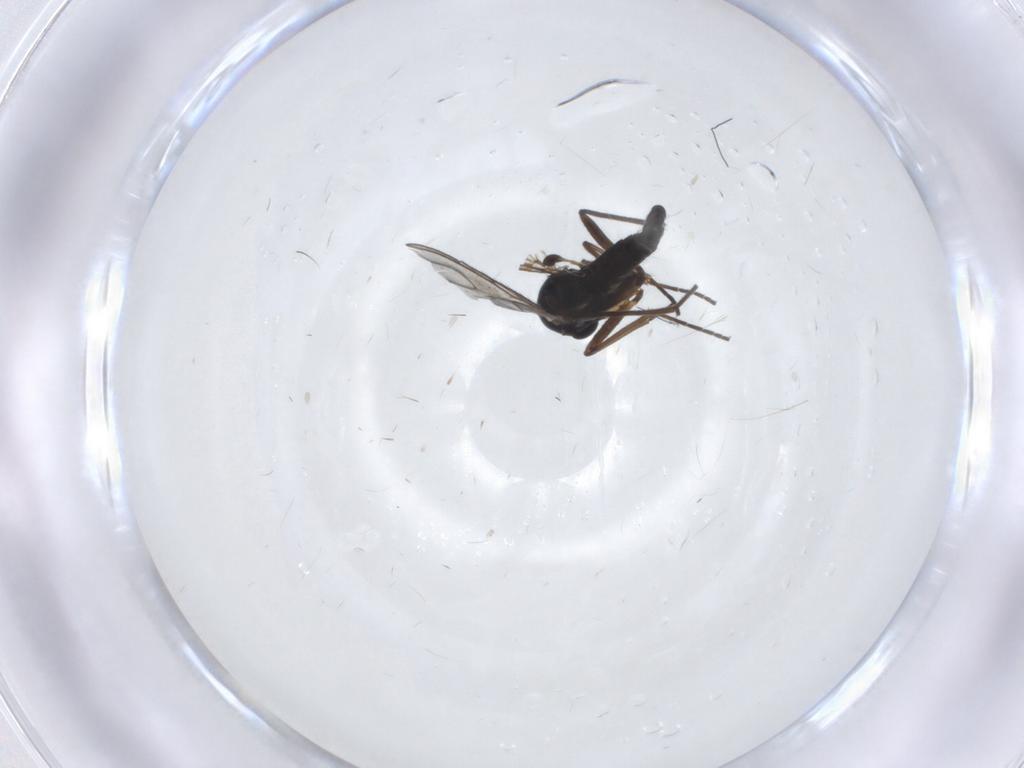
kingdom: Animalia
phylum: Arthropoda
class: Insecta
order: Diptera
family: Sciaridae
